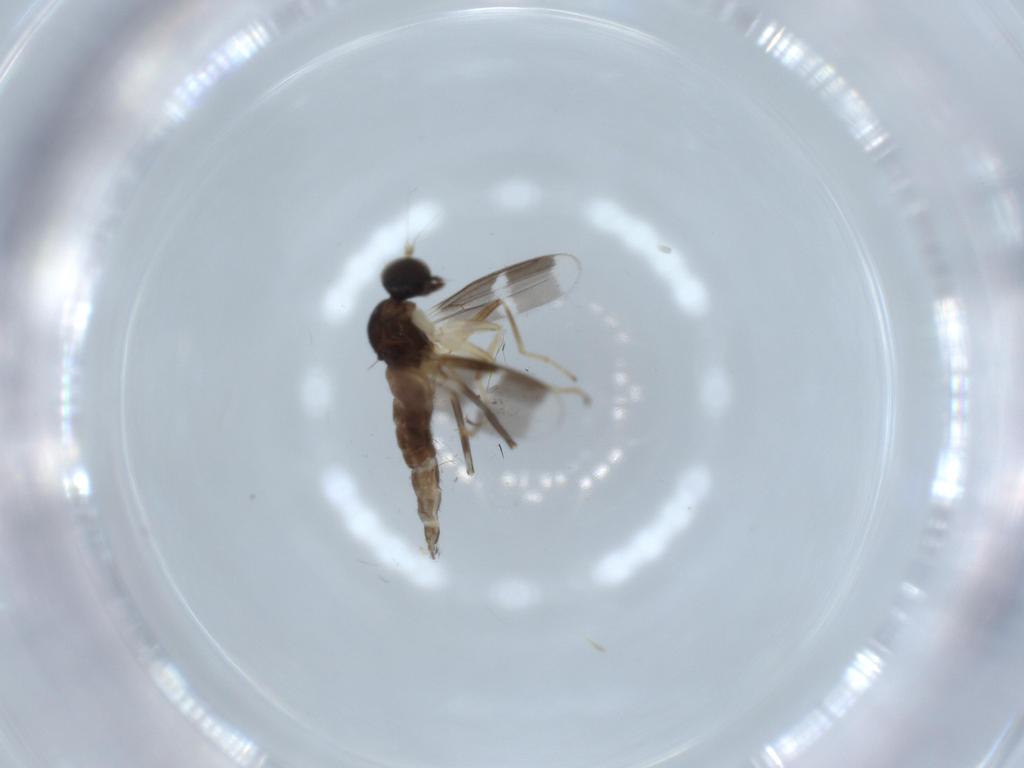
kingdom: Animalia
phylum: Arthropoda
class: Insecta
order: Diptera
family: Hybotidae
